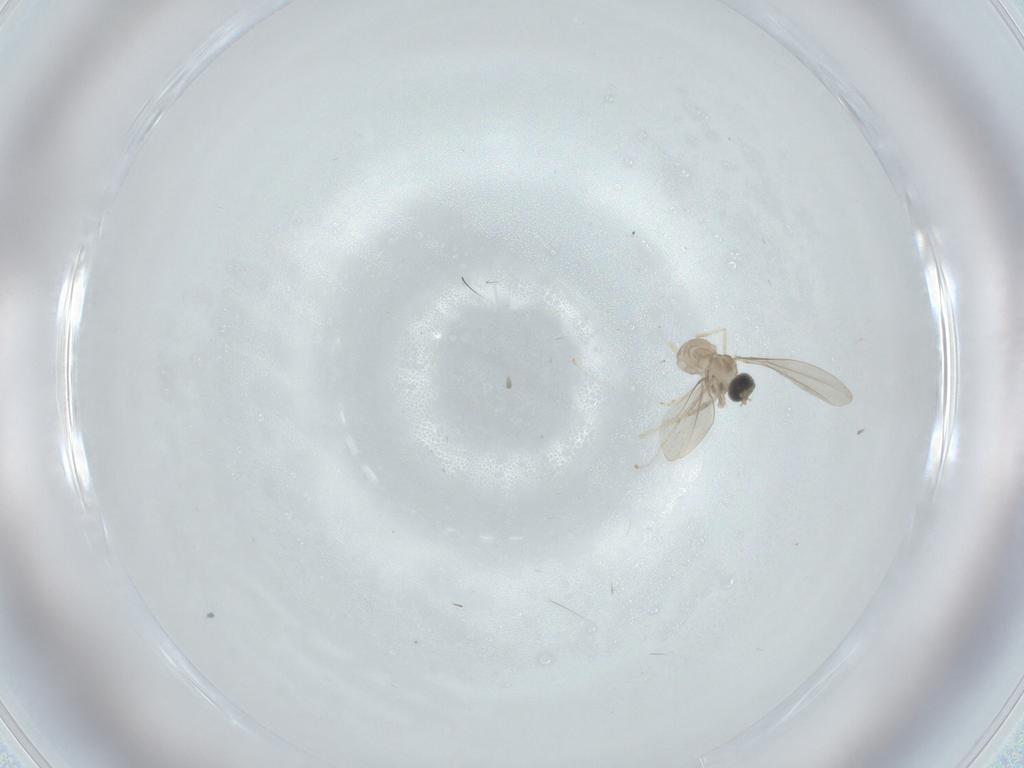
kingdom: Animalia
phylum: Arthropoda
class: Insecta
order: Diptera
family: Cecidomyiidae
